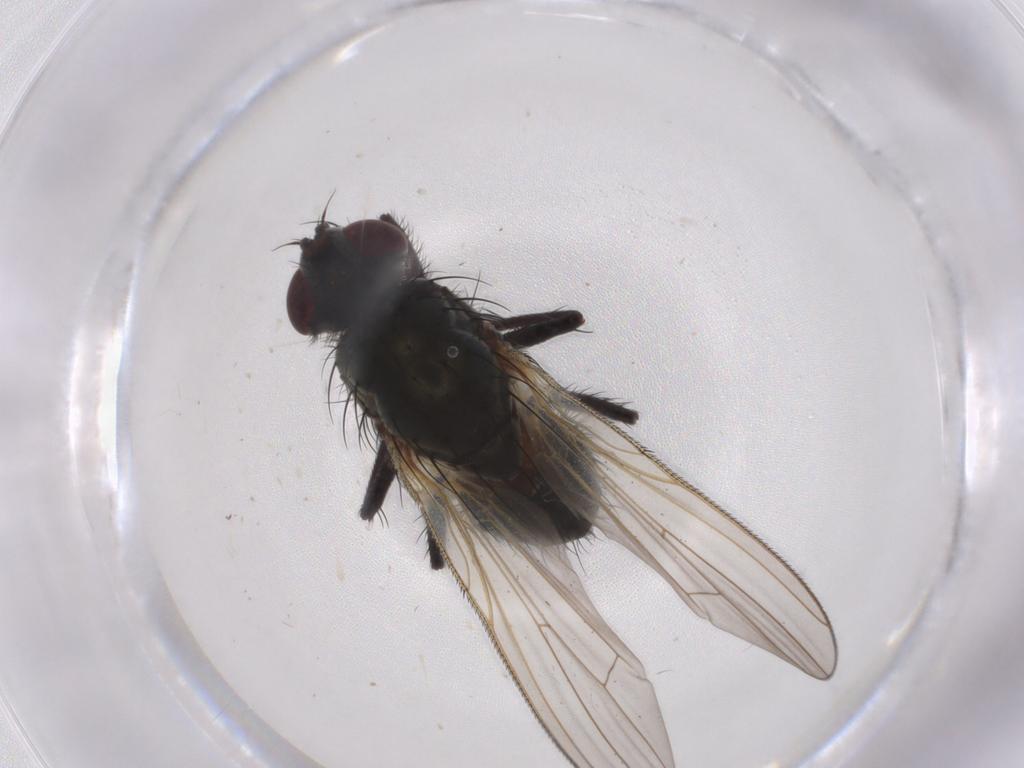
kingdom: Animalia
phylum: Arthropoda
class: Insecta
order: Diptera
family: Anthomyiidae
